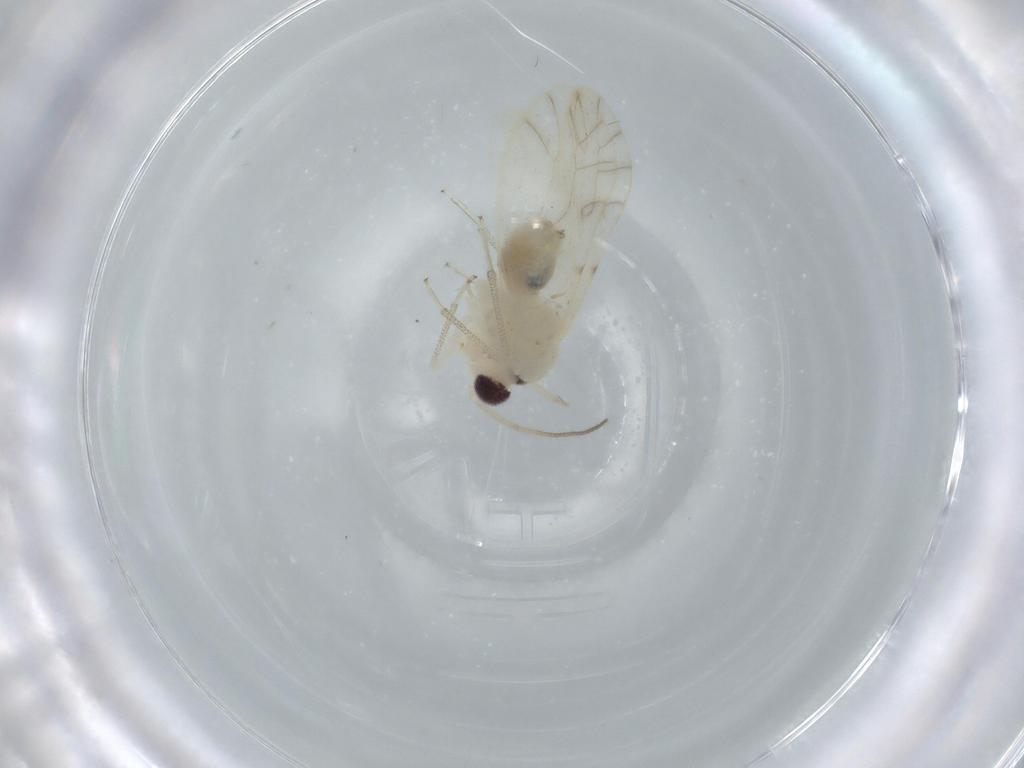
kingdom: Animalia
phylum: Arthropoda
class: Insecta
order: Psocodea
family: Caeciliusidae
